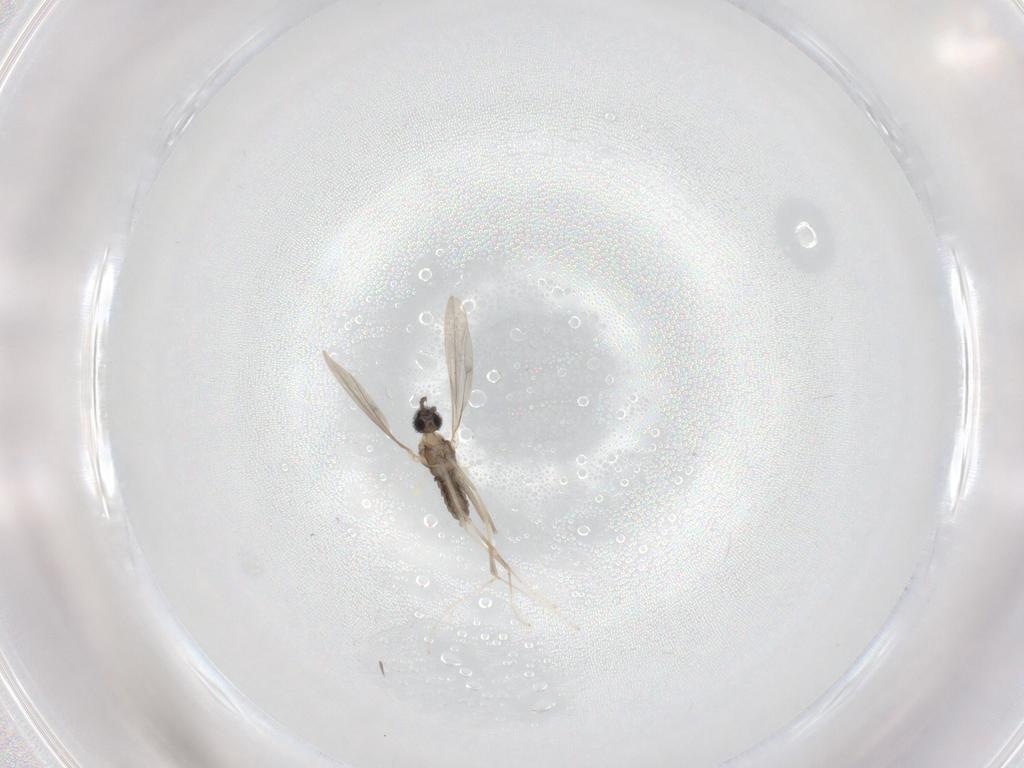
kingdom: Animalia
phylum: Arthropoda
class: Insecta
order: Diptera
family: Cecidomyiidae
